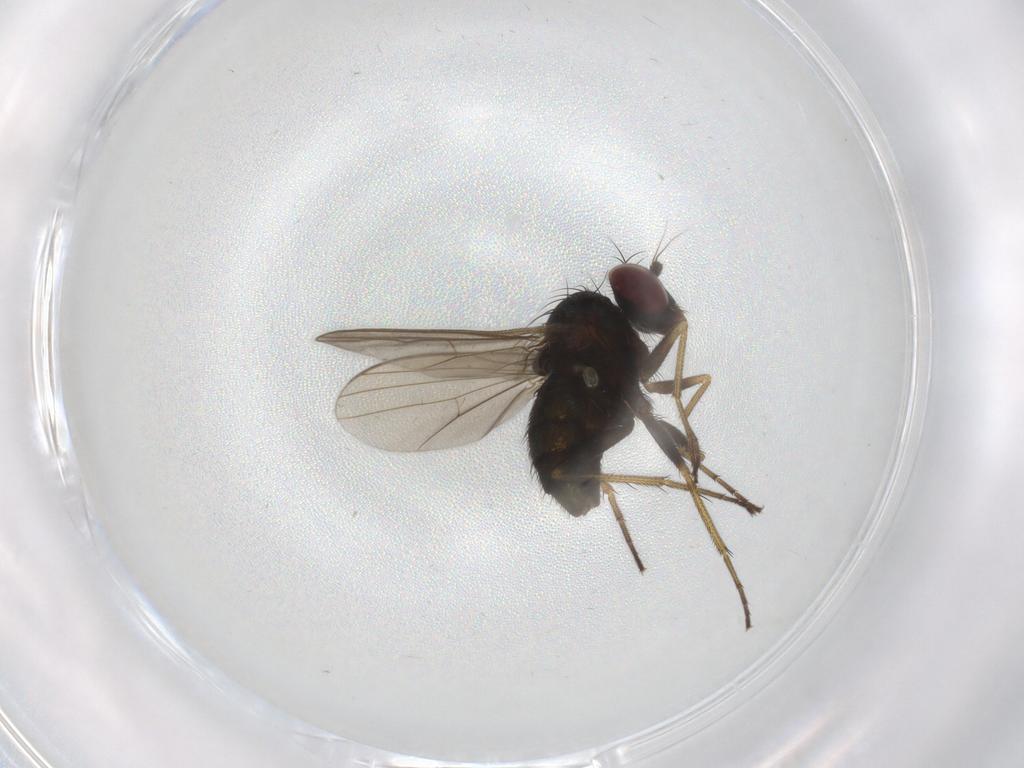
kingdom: Animalia
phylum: Arthropoda
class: Insecta
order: Diptera
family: Dolichopodidae
